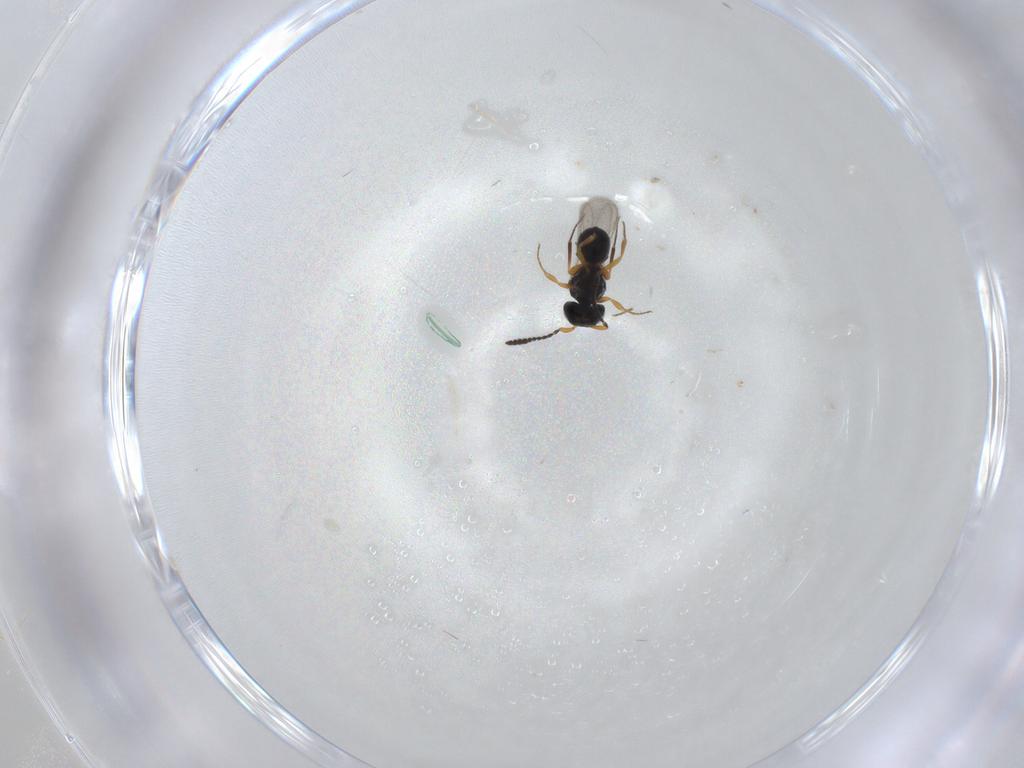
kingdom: Animalia
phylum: Arthropoda
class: Insecta
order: Hymenoptera
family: Scelionidae
